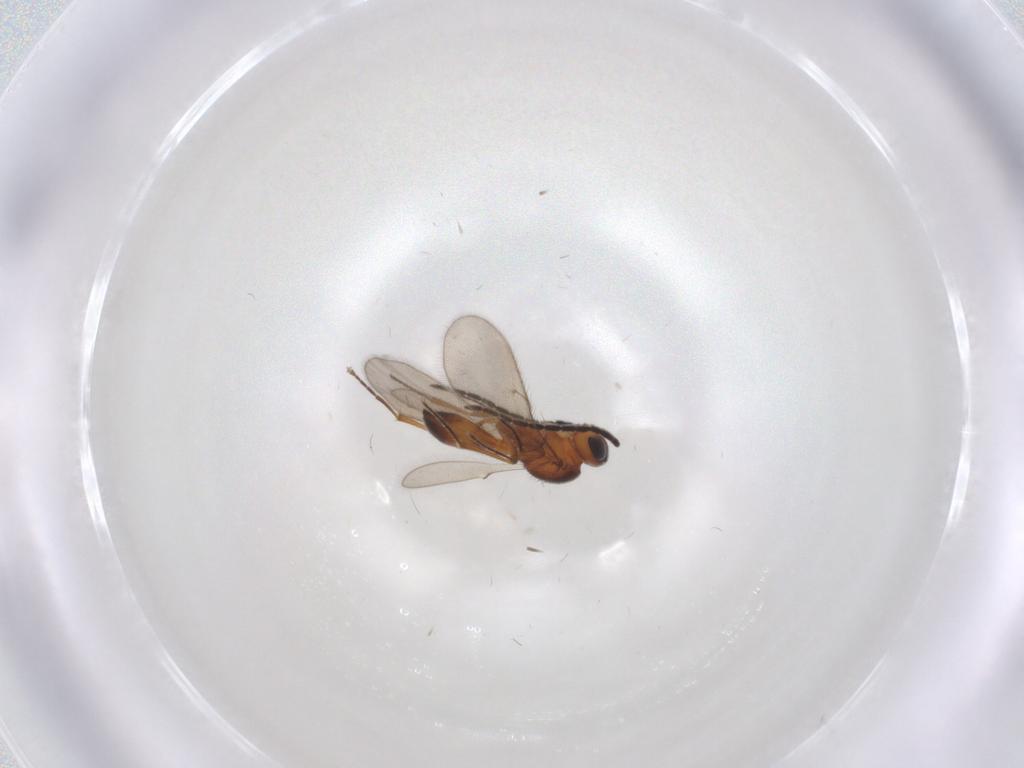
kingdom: Animalia
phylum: Arthropoda
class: Insecta
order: Hymenoptera
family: Scelionidae
